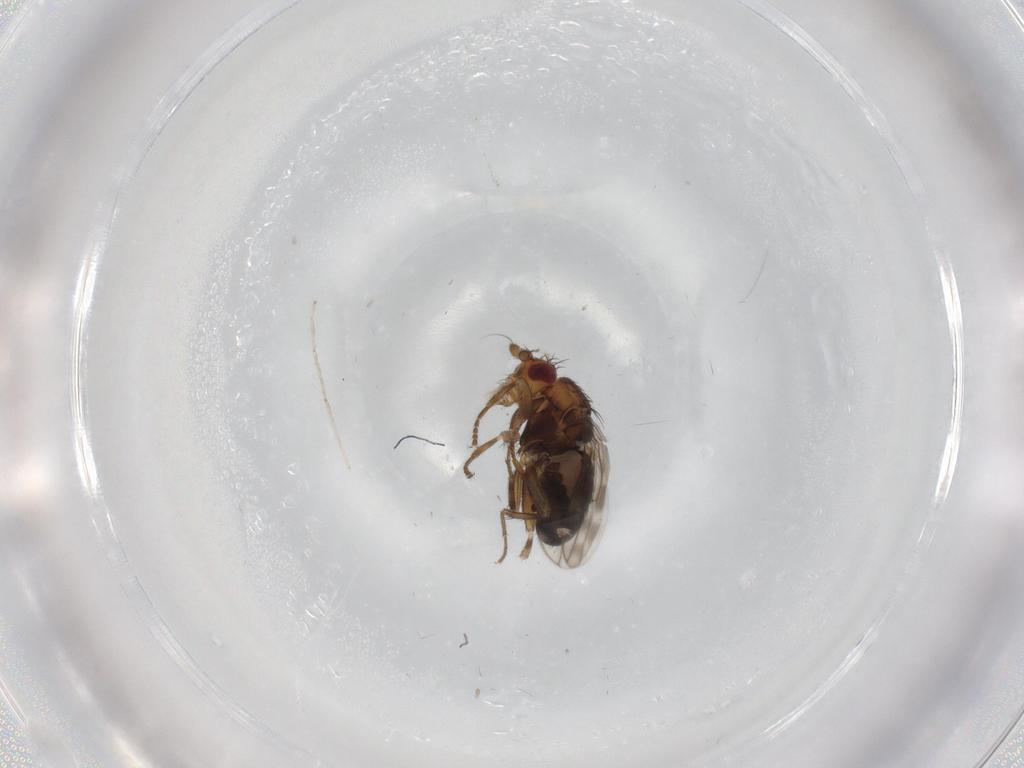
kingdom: Animalia
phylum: Arthropoda
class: Insecta
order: Diptera
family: Sphaeroceridae
